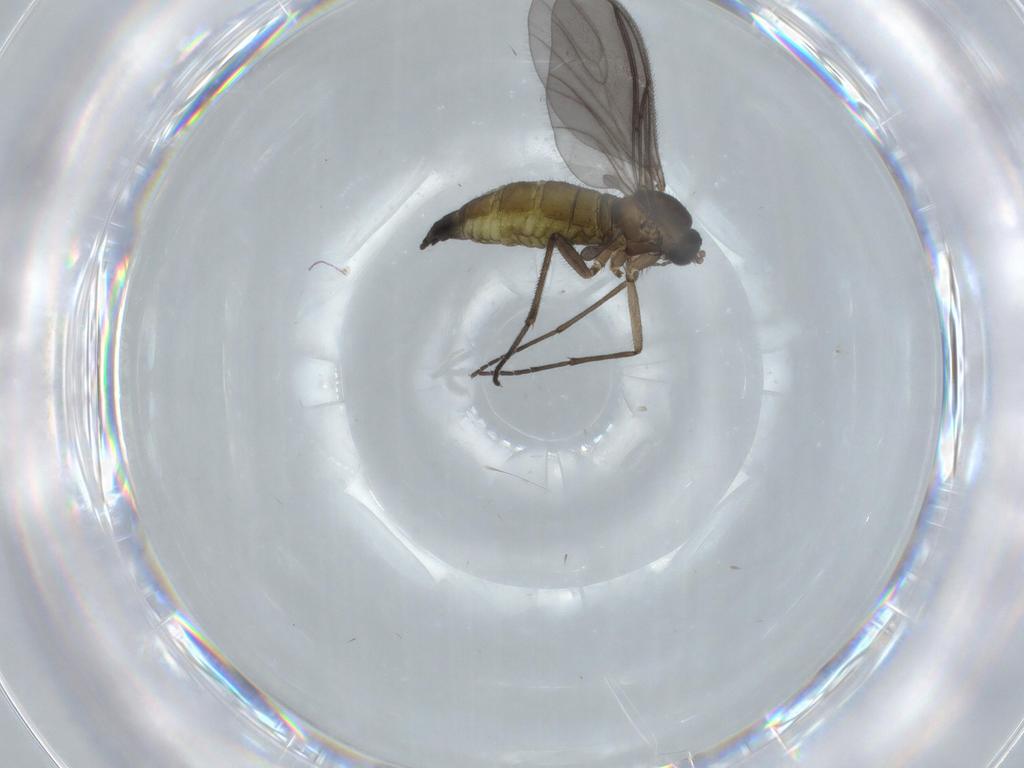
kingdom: Animalia
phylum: Arthropoda
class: Insecta
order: Diptera
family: Sciaridae
